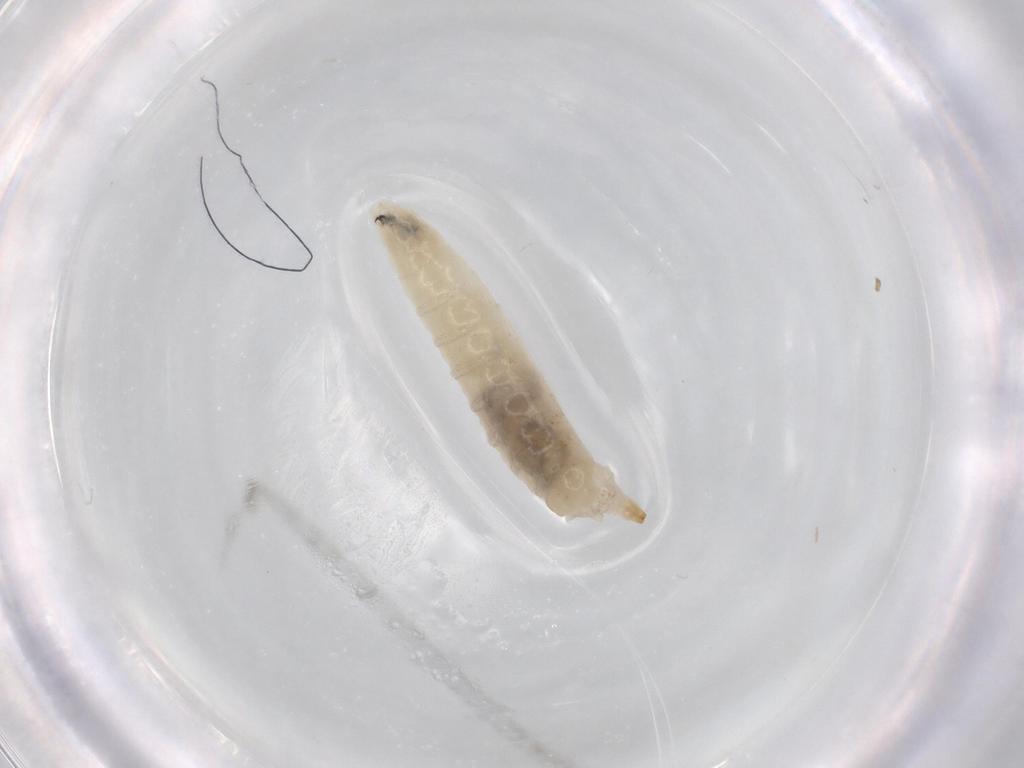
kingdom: Animalia
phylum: Arthropoda
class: Insecta
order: Diptera
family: Drosophilidae
